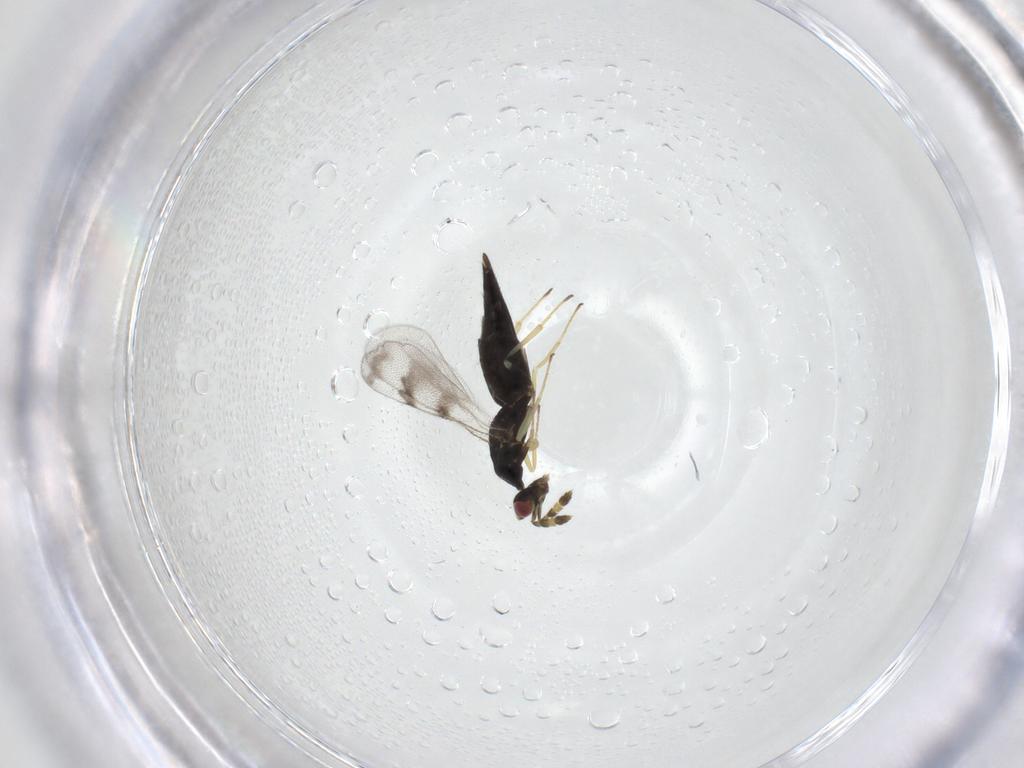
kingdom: Animalia
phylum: Arthropoda
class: Insecta
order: Hymenoptera
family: Eulophidae
